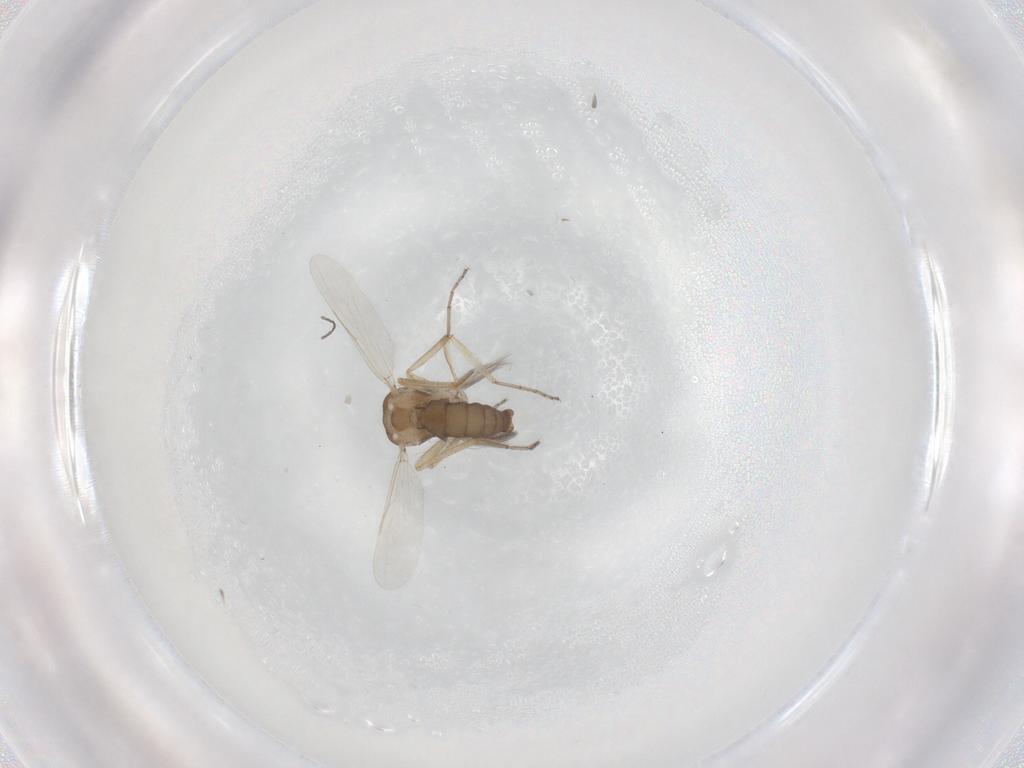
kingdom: Animalia
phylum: Arthropoda
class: Insecta
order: Diptera
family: Ceratopogonidae
